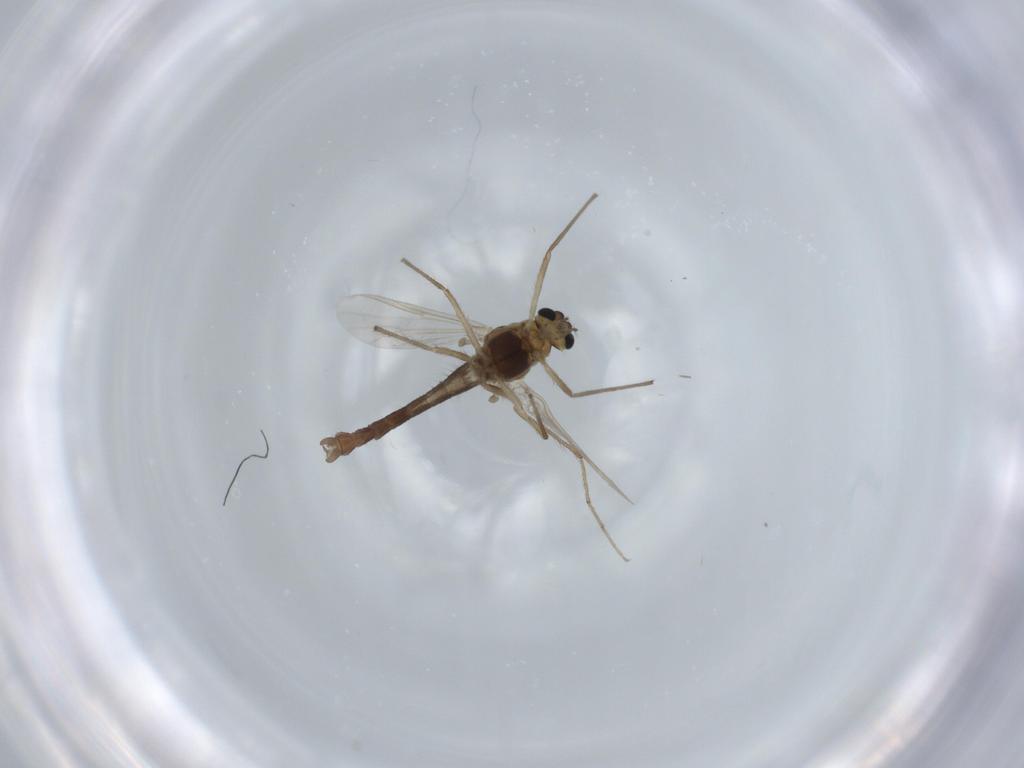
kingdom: Animalia
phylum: Arthropoda
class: Insecta
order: Diptera
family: Chironomidae
